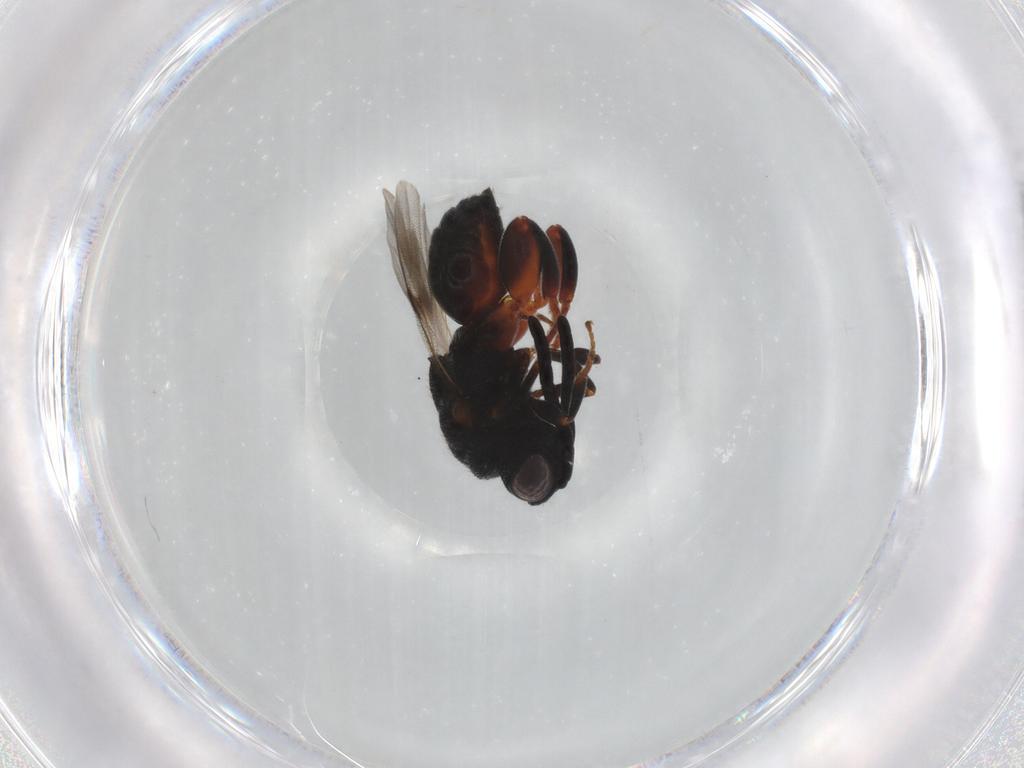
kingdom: Animalia
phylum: Arthropoda
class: Insecta
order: Hymenoptera
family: Chalcididae
